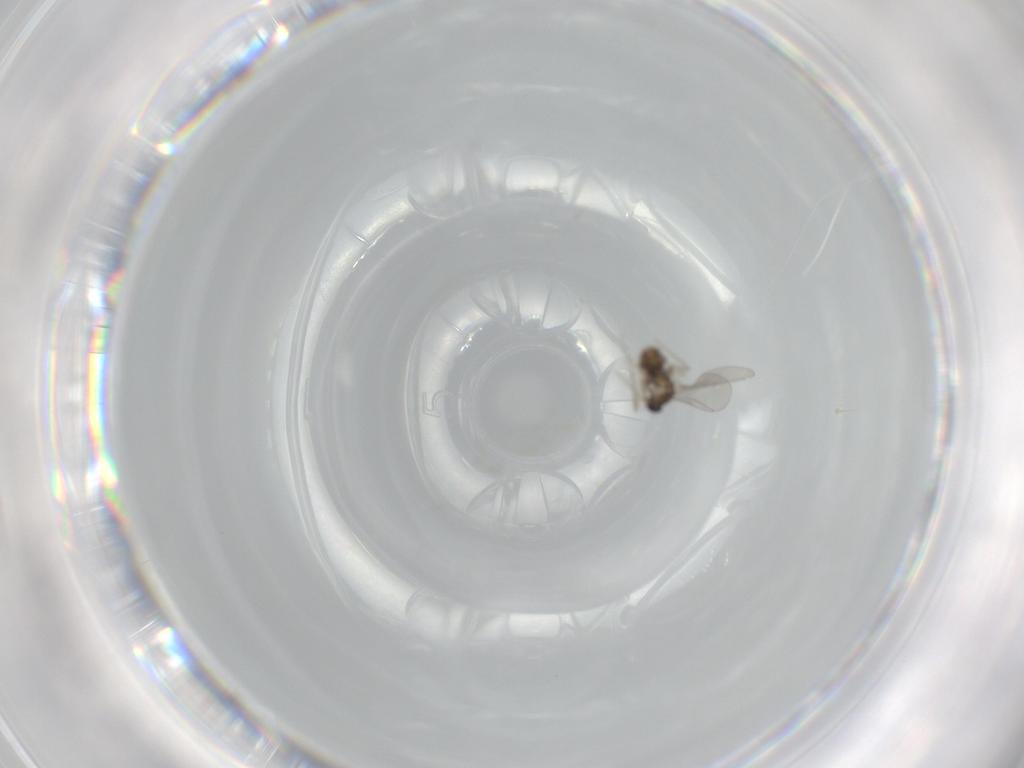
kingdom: Animalia
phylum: Arthropoda
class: Insecta
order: Diptera
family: Cecidomyiidae
